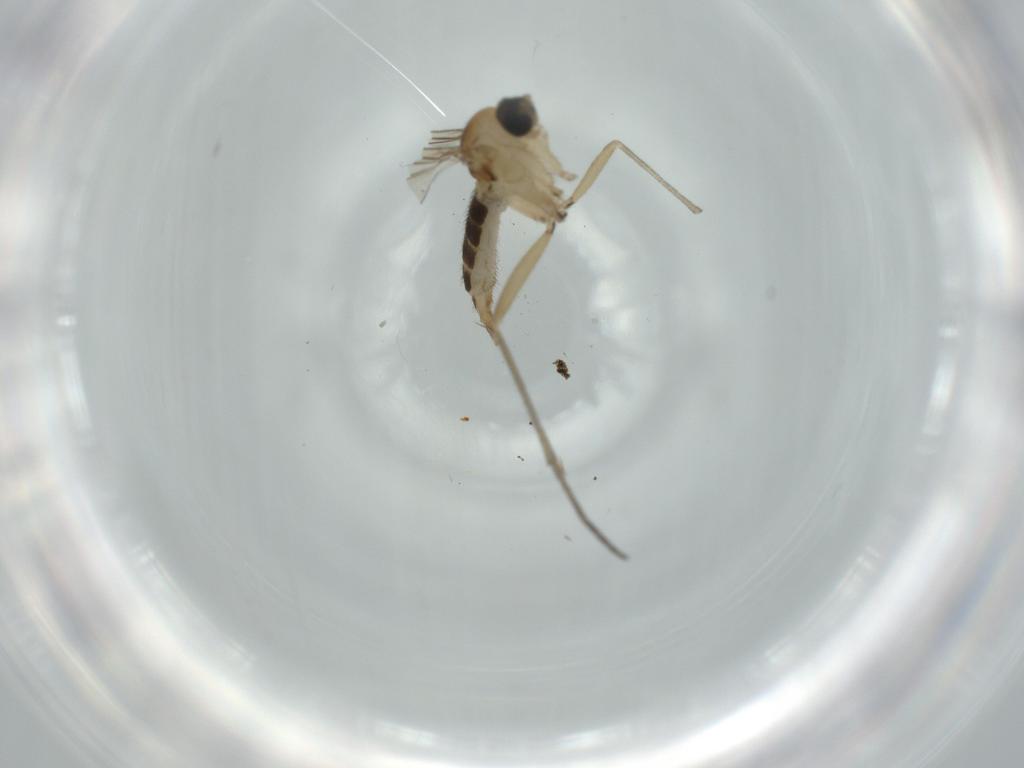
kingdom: Animalia
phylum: Arthropoda
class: Insecta
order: Diptera
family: Sciaridae
